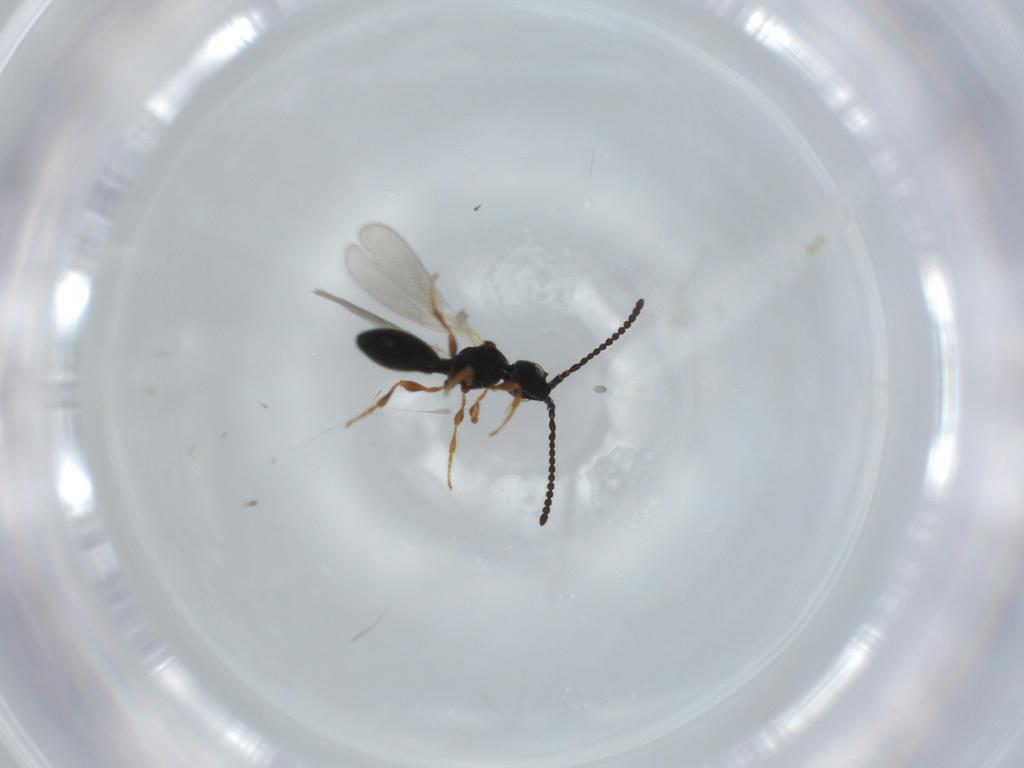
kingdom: Animalia
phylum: Arthropoda
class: Insecta
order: Hymenoptera
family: Diapriidae
